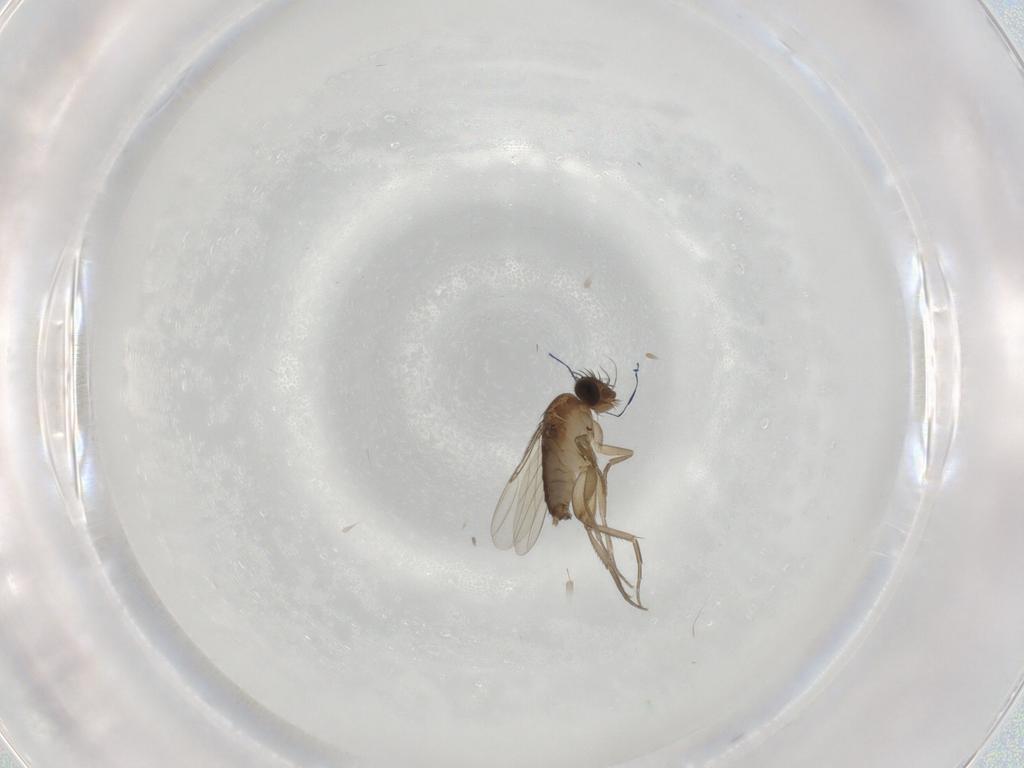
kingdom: Animalia
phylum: Arthropoda
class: Insecta
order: Diptera
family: Phoridae
